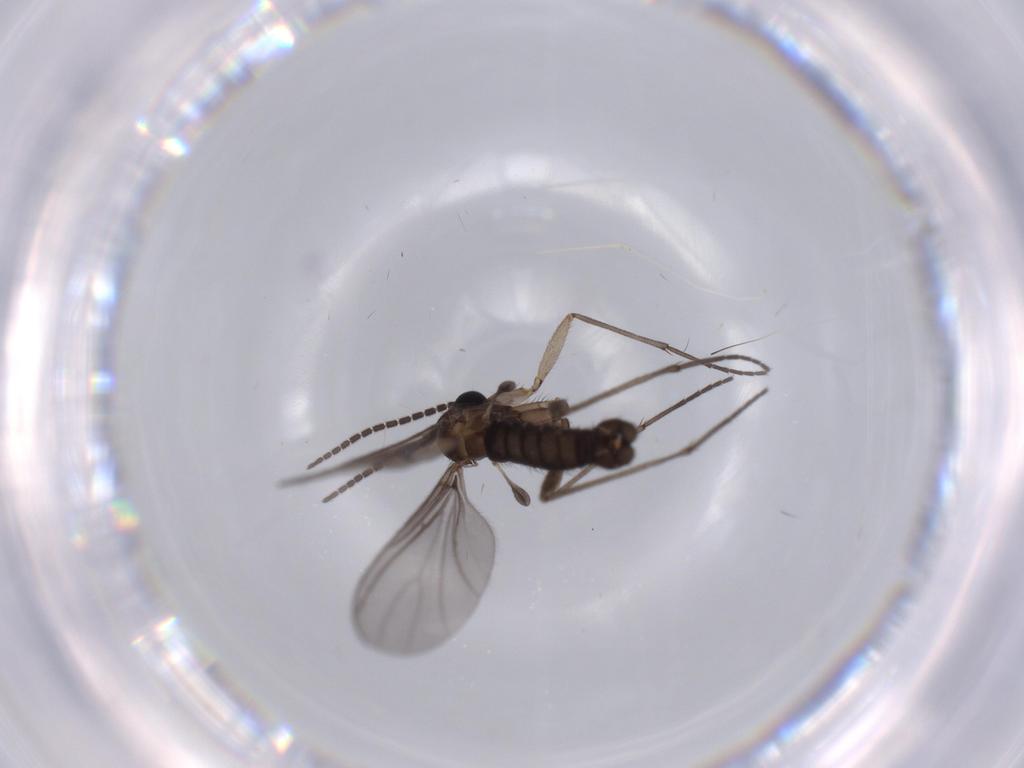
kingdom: Animalia
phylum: Arthropoda
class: Insecta
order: Diptera
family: Sciaridae
